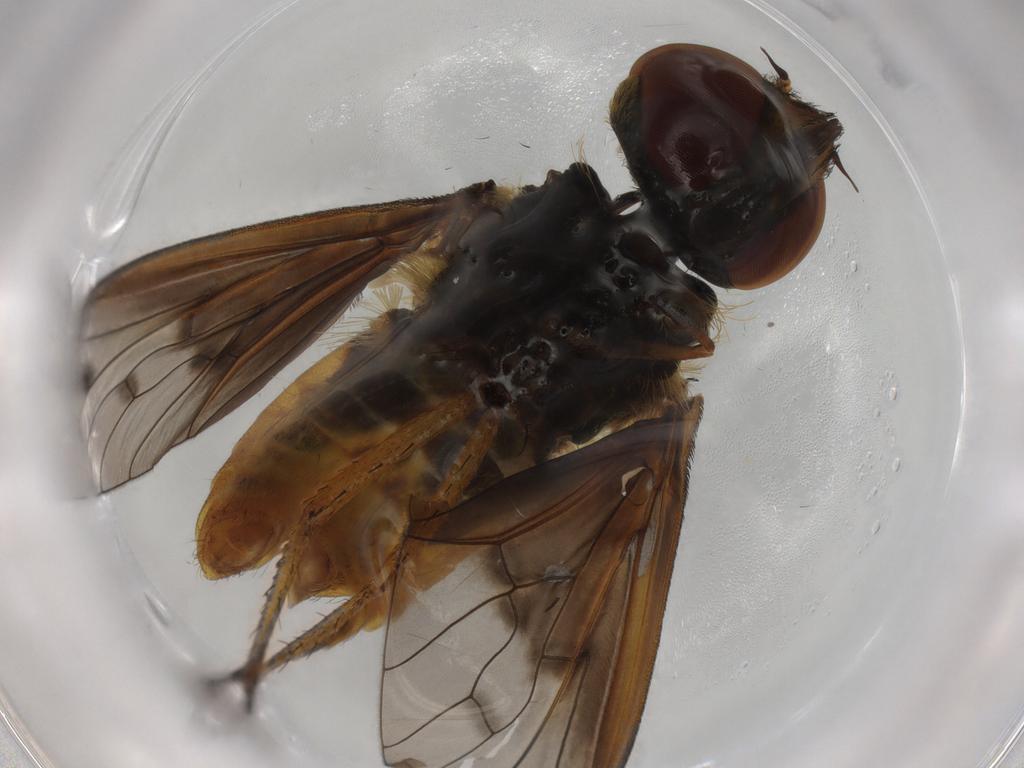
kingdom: Animalia
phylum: Arthropoda
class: Insecta
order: Diptera
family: Bombyliidae
